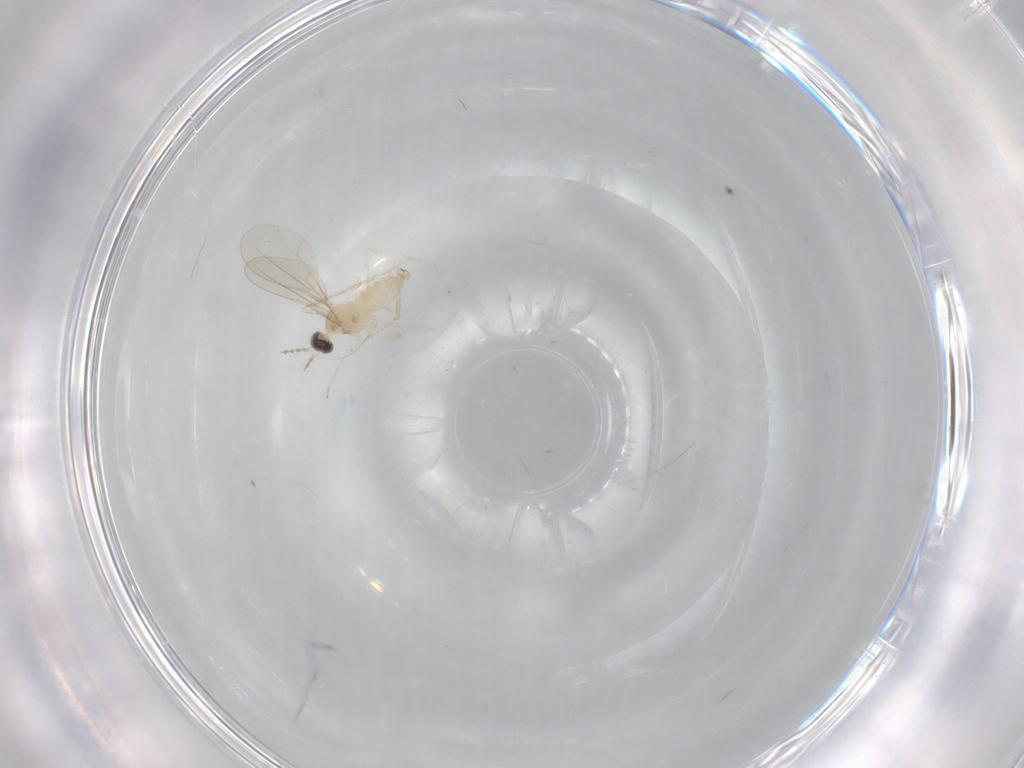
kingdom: Animalia
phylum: Arthropoda
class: Insecta
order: Diptera
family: Cecidomyiidae
